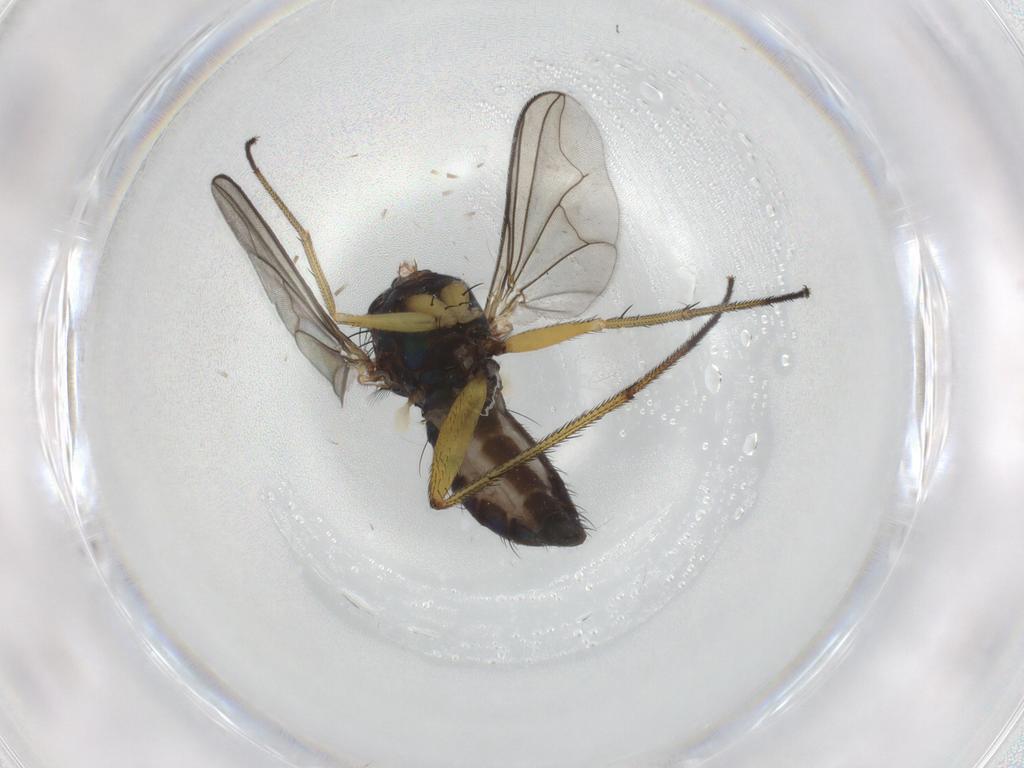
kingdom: Animalia
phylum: Arthropoda
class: Insecta
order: Diptera
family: Dolichopodidae
